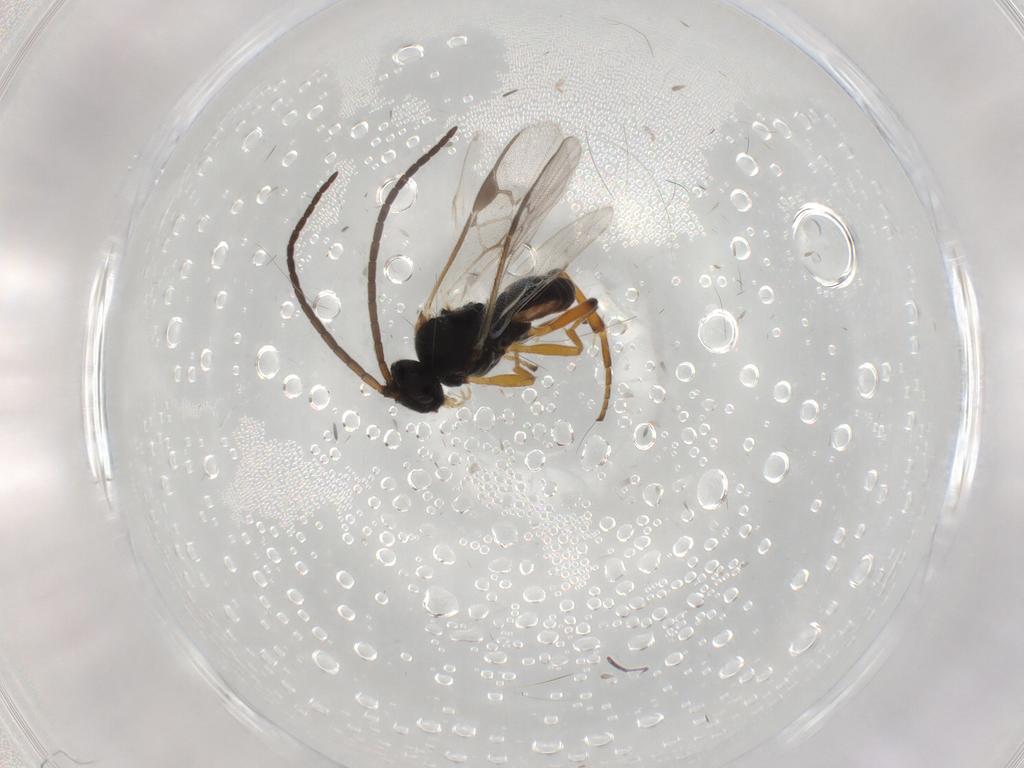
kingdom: Animalia
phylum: Arthropoda
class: Insecta
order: Hymenoptera
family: Braconidae
